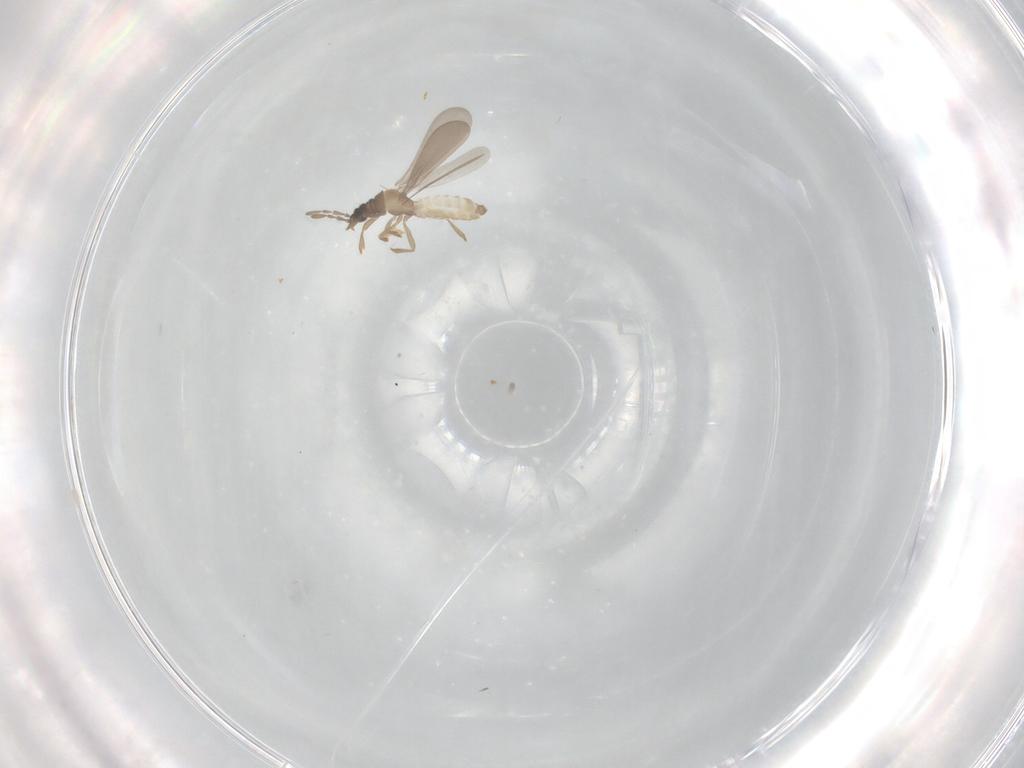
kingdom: Animalia
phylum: Arthropoda
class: Insecta
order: Hemiptera
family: Enicocephalidae
